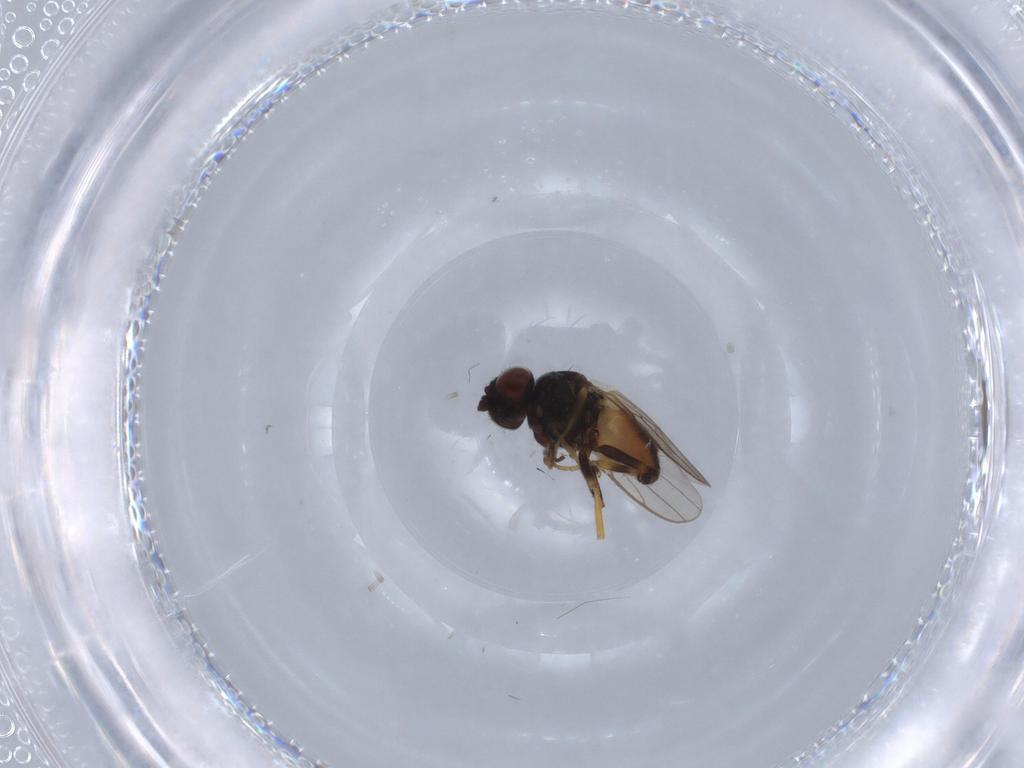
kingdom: Animalia
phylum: Arthropoda
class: Insecta
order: Diptera
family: Chloropidae
